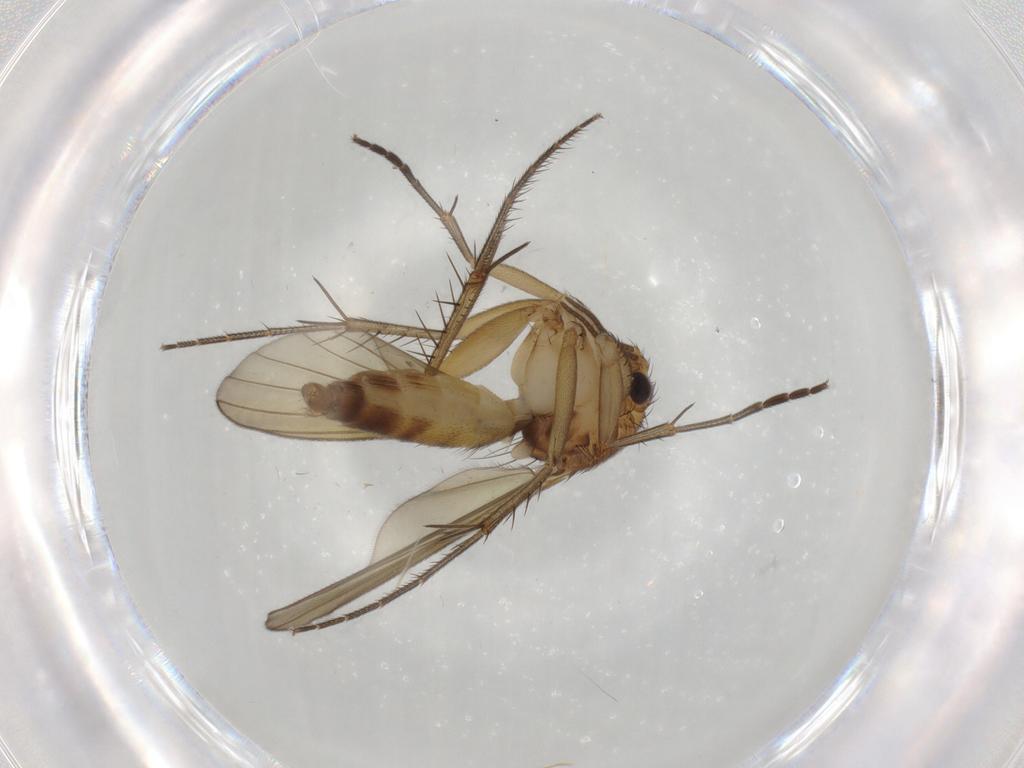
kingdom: Animalia
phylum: Arthropoda
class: Insecta
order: Diptera
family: Mycetophilidae
